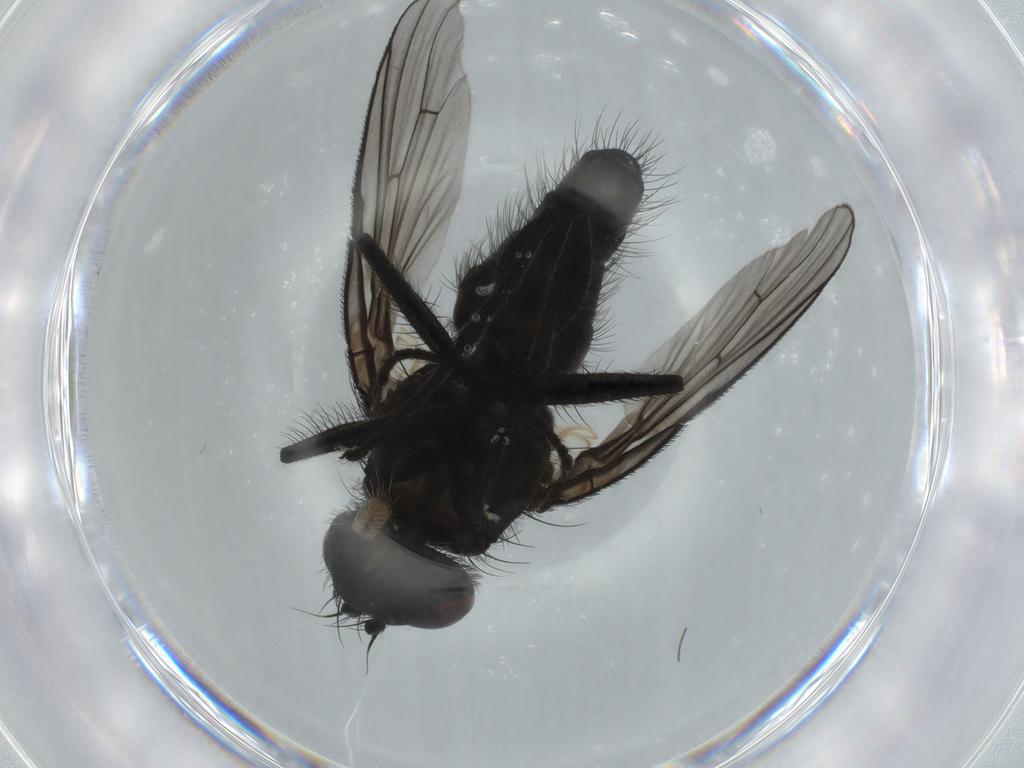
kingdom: Animalia
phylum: Arthropoda
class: Insecta
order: Diptera
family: Muscidae
